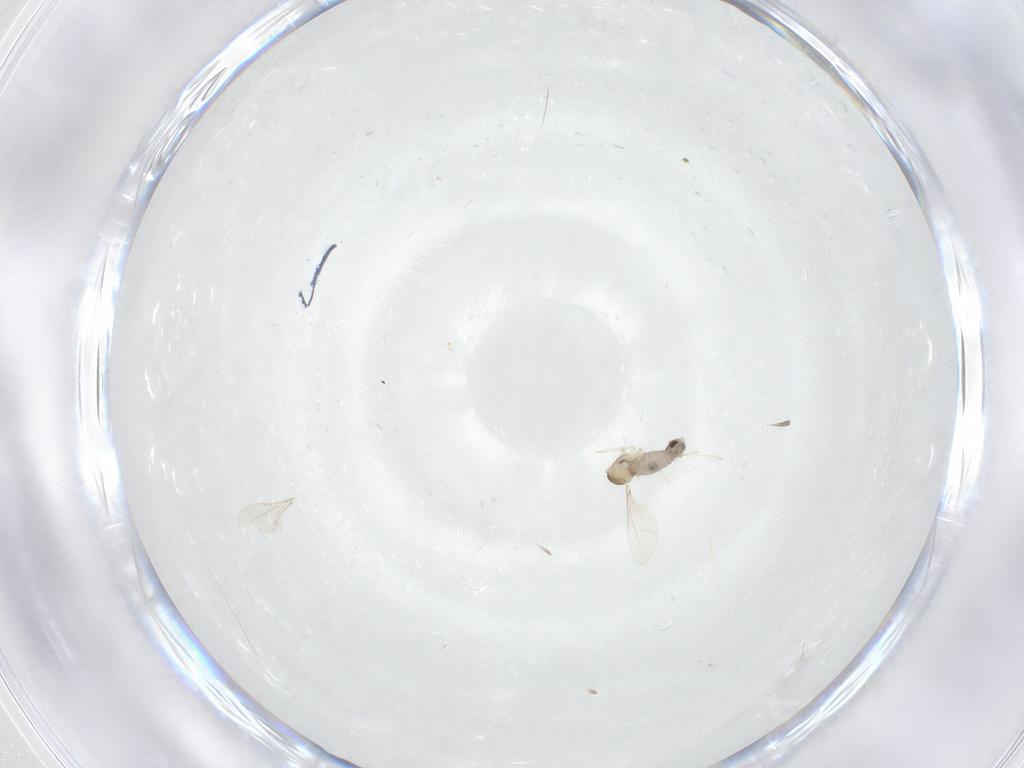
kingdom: Animalia
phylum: Arthropoda
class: Insecta
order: Diptera
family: Cecidomyiidae
